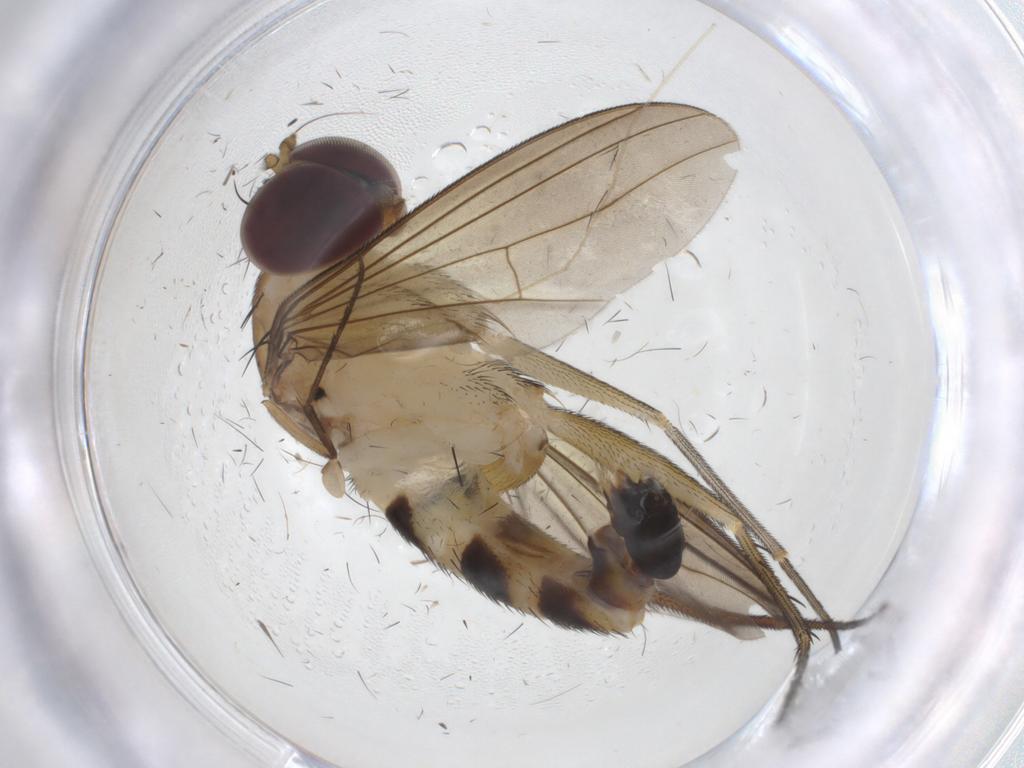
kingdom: Animalia
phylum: Arthropoda
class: Insecta
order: Diptera
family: Dolichopodidae
